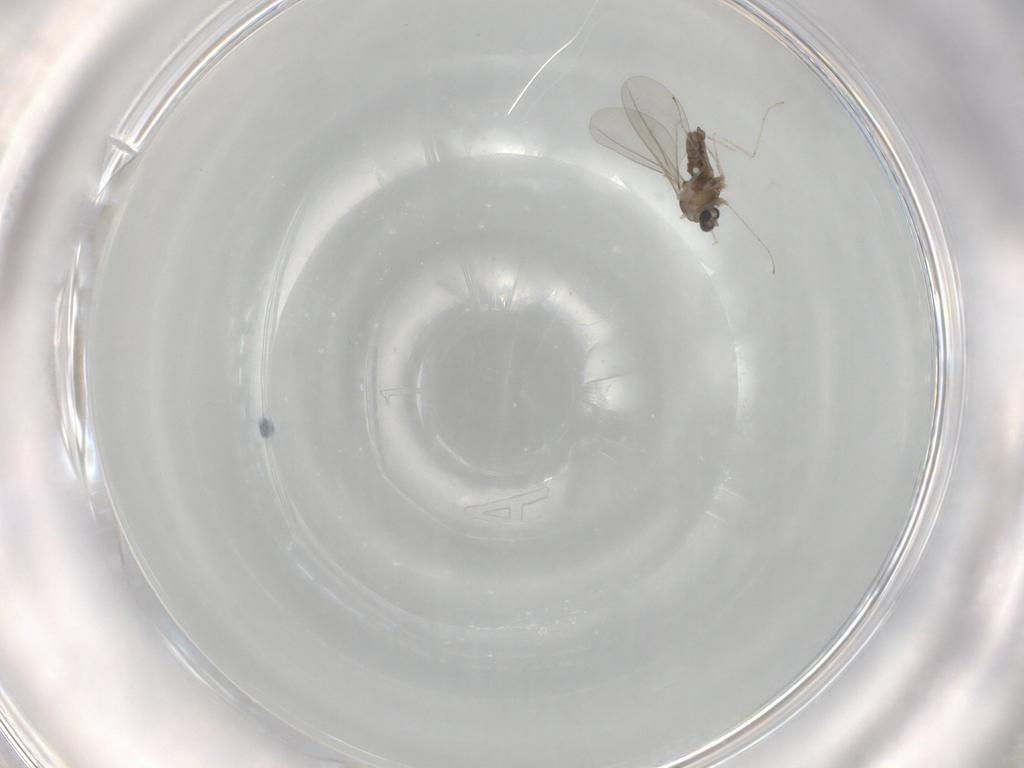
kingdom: Animalia
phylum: Arthropoda
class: Insecta
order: Diptera
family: Cecidomyiidae
